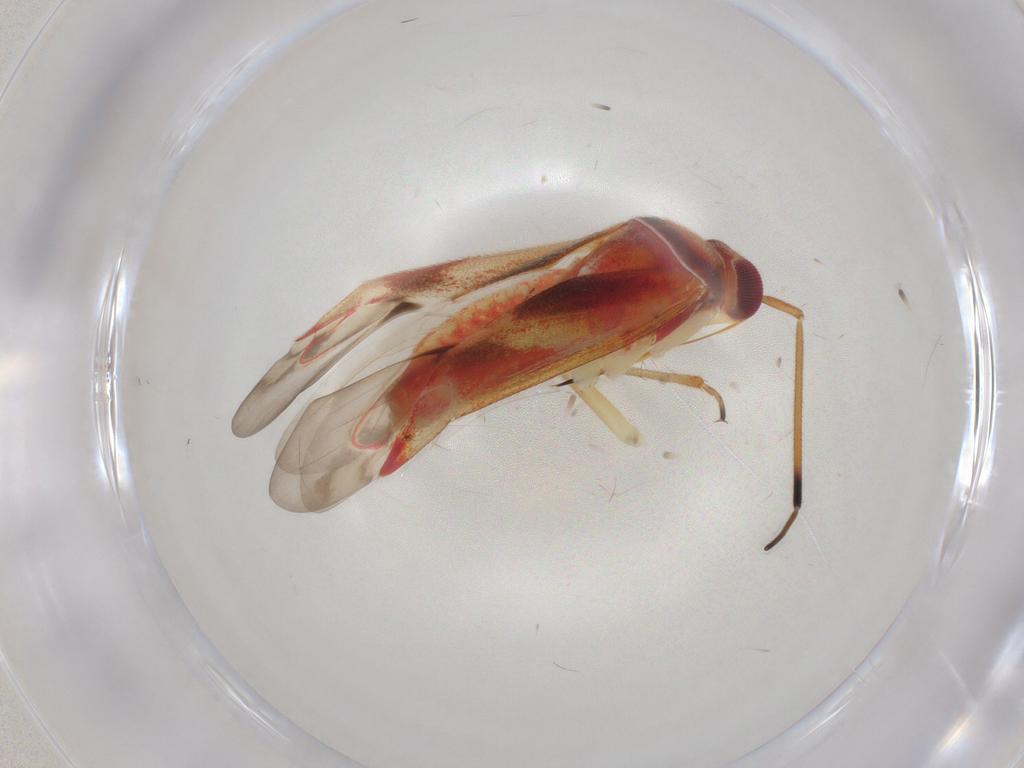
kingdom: Animalia
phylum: Arthropoda
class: Insecta
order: Hemiptera
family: Miridae
